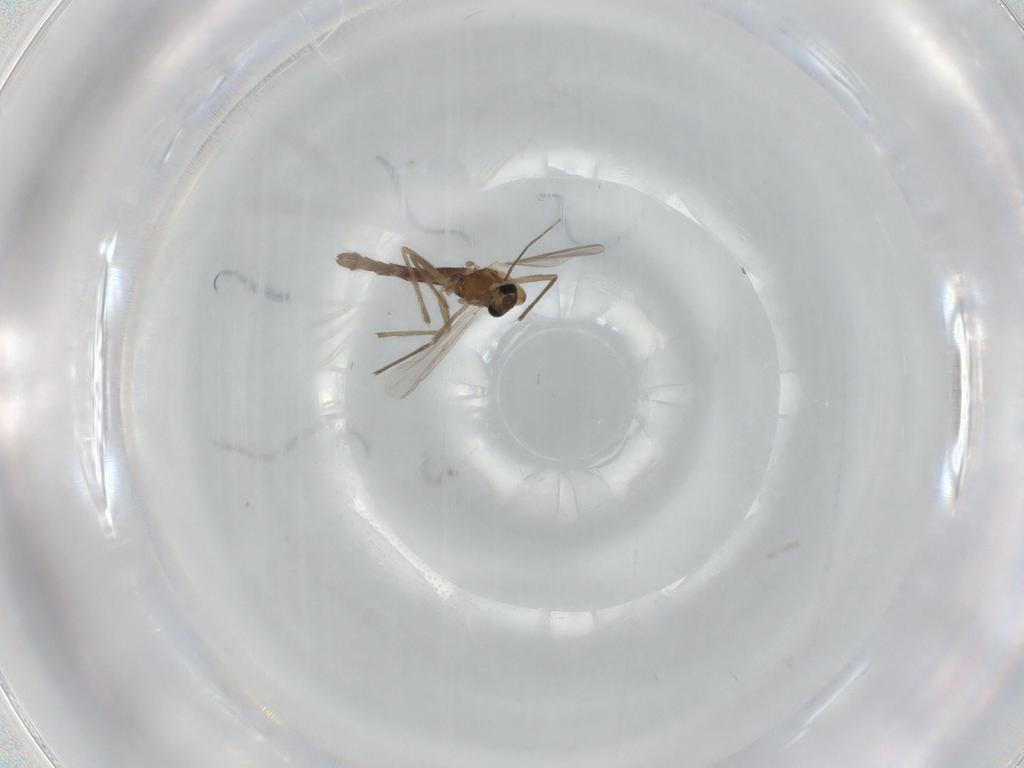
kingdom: Animalia
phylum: Arthropoda
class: Insecta
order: Diptera
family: Chironomidae
